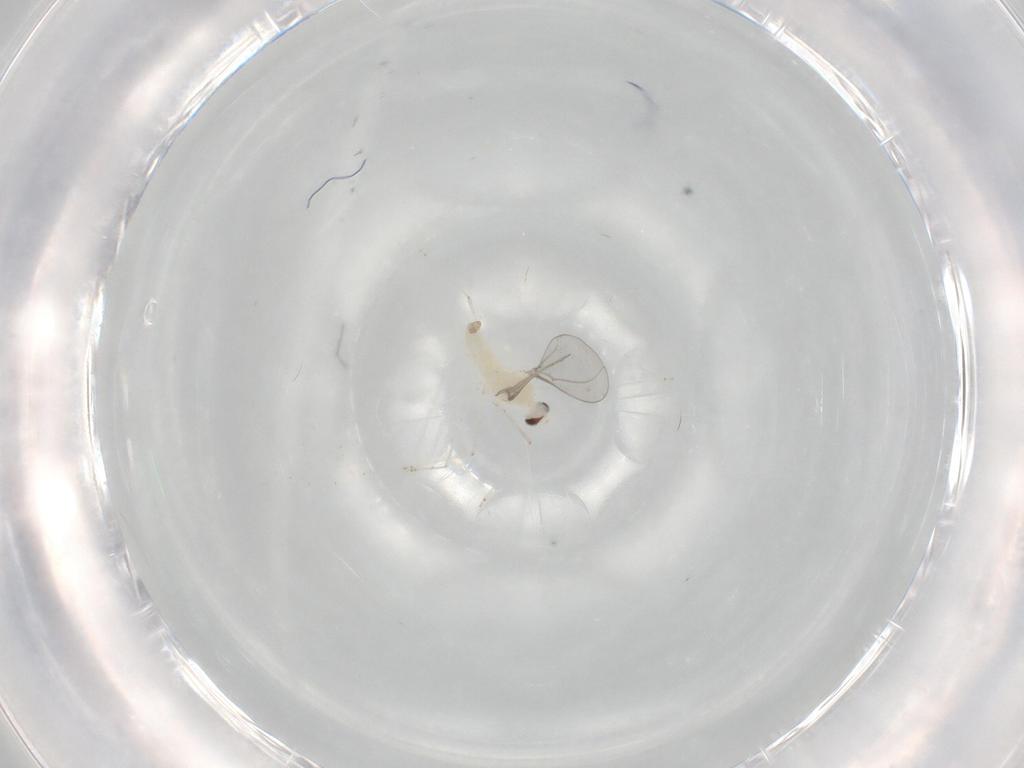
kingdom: Animalia
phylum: Arthropoda
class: Insecta
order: Diptera
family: Cecidomyiidae
